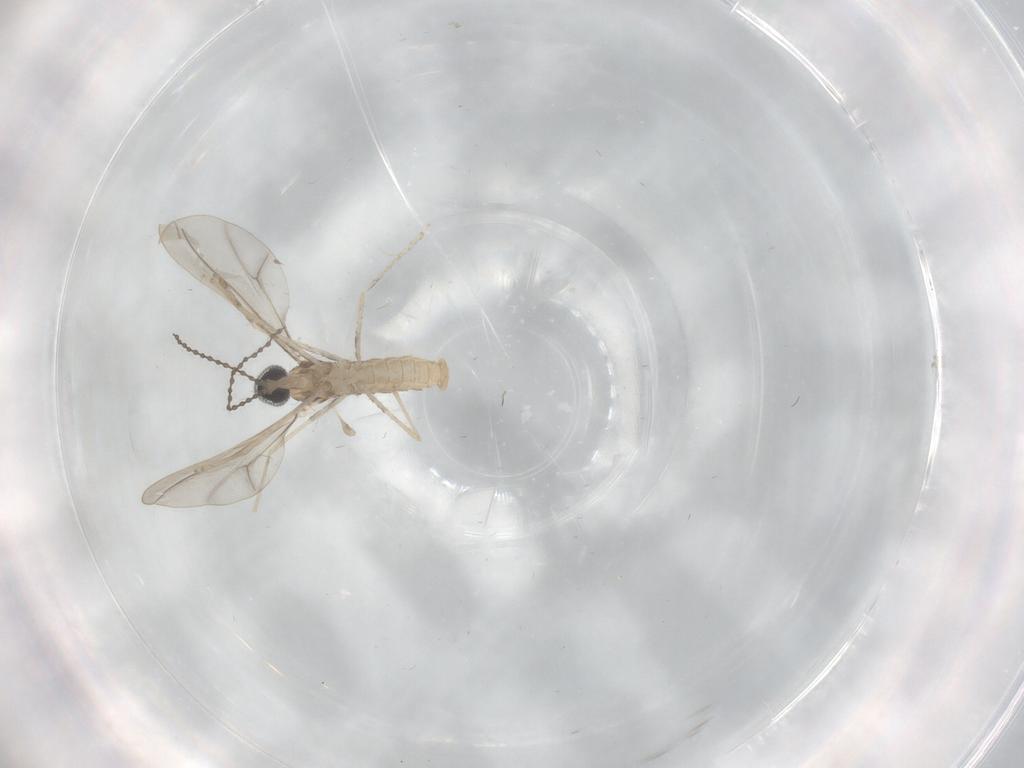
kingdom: Animalia
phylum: Arthropoda
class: Insecta
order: Diptera
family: Cecidomyiidae
